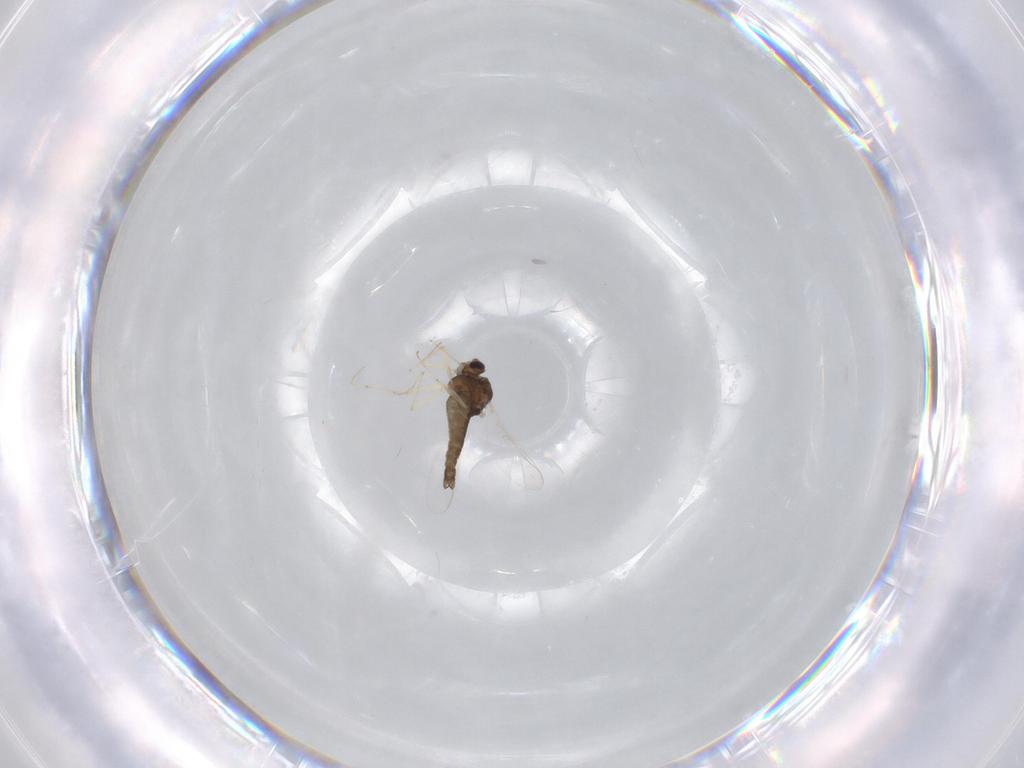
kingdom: Animalia
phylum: Arthropoda
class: Insecta
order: Diptera
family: Chironomidae
